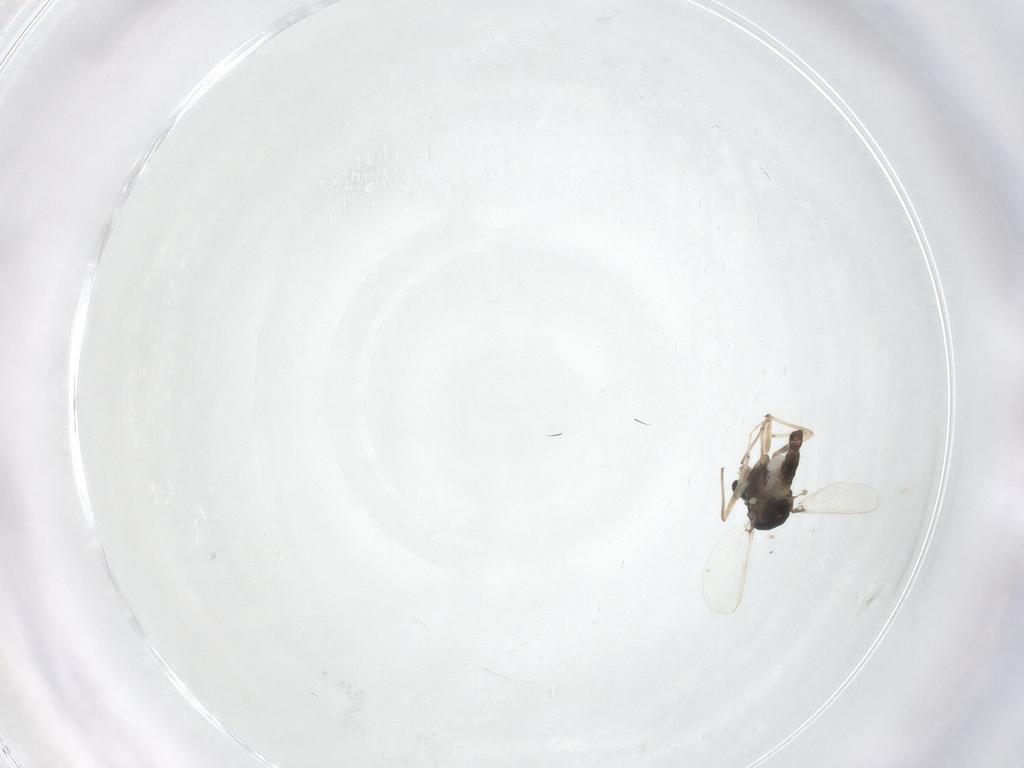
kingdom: Animalia
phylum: Arthropoda
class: Insecta
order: Diptera
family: Chironomidae
